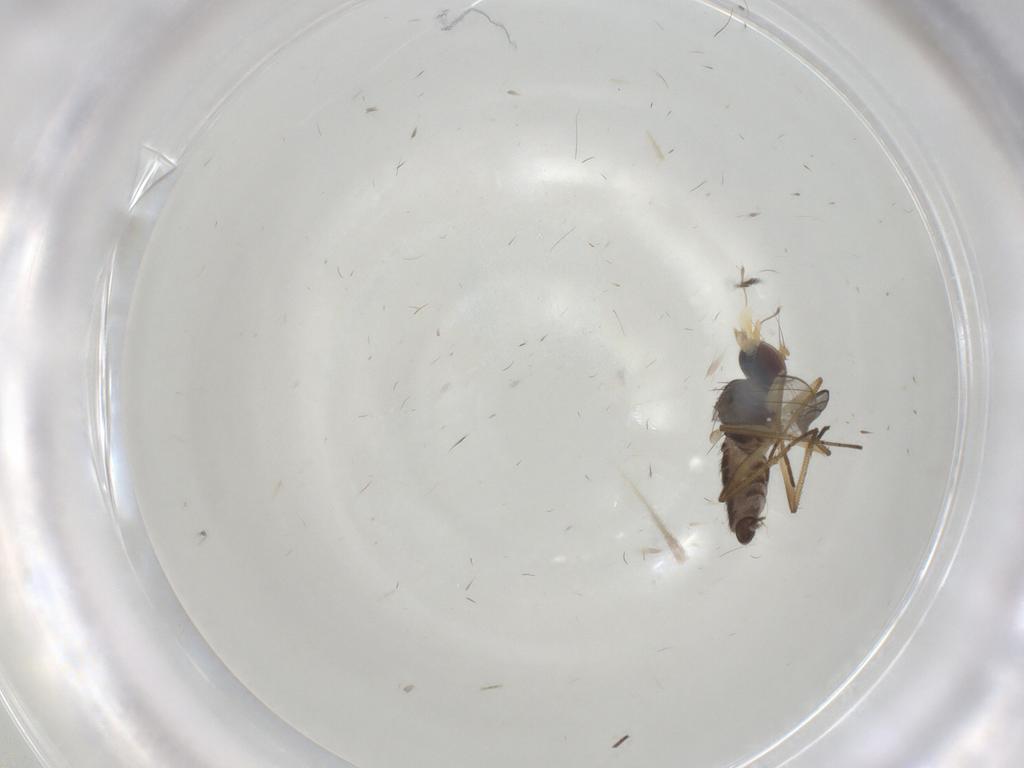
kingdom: Animalia
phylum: Arthropoda
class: Insecta
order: Diptera
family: Dolichopodidae
